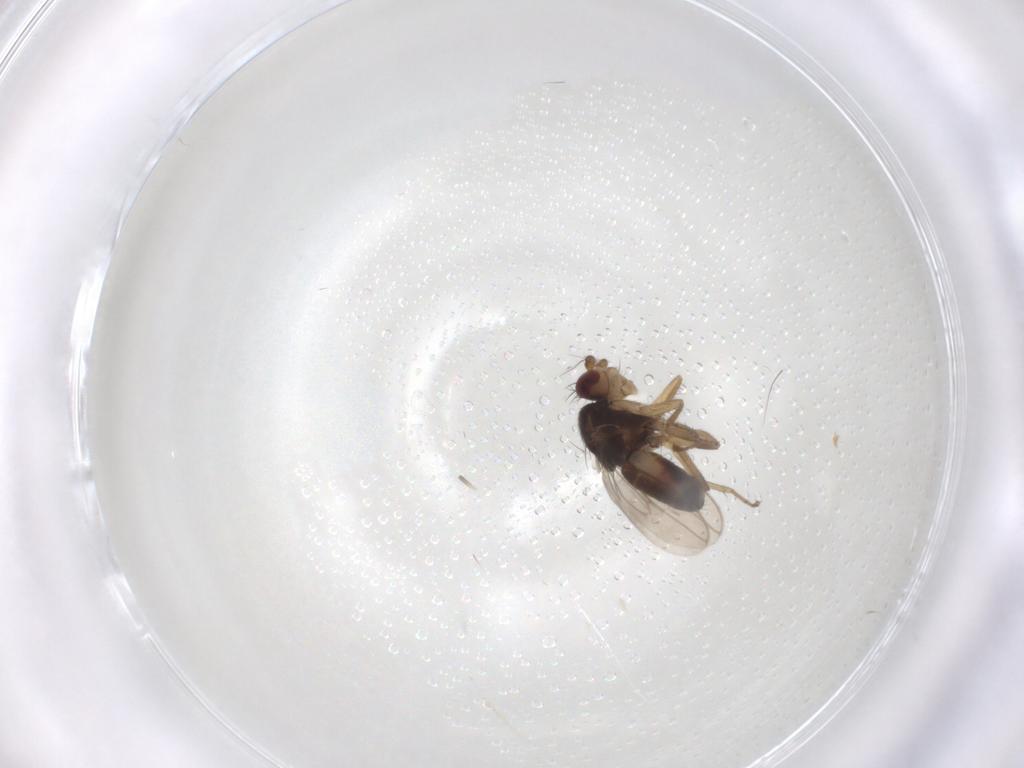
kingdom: Animalia
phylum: Arthropoda
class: Insecta
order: Diptera
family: Sphaeroceridae
